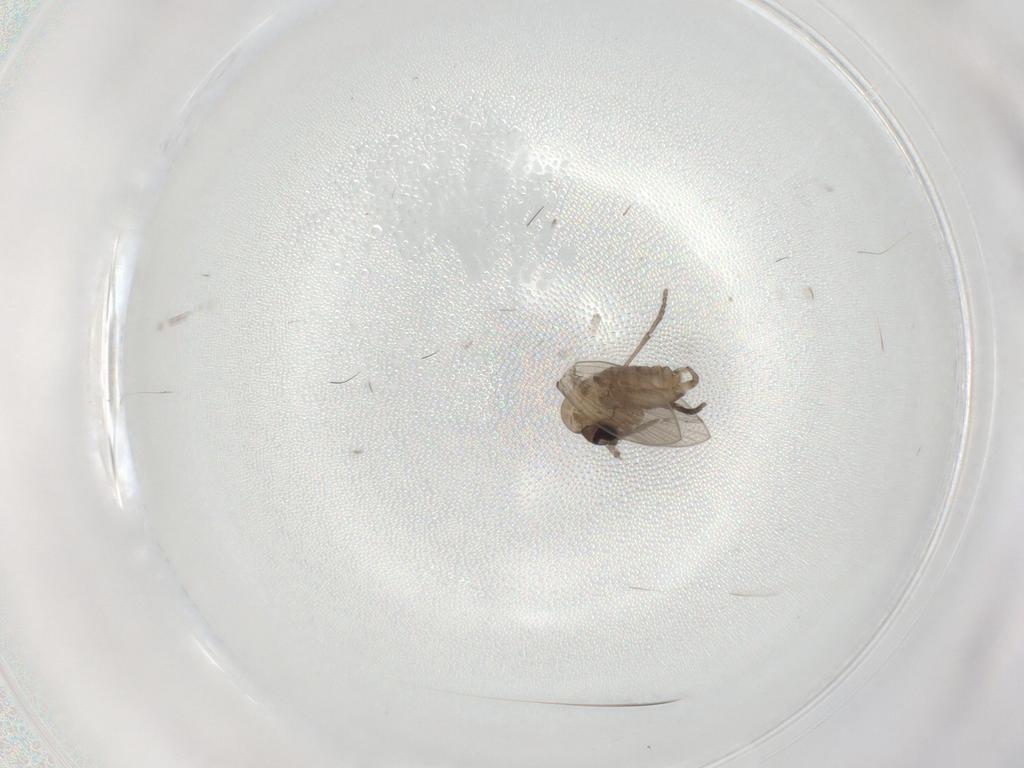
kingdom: Animalia
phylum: Arthropoda
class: Insecta
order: Diptera
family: Psychodidae
